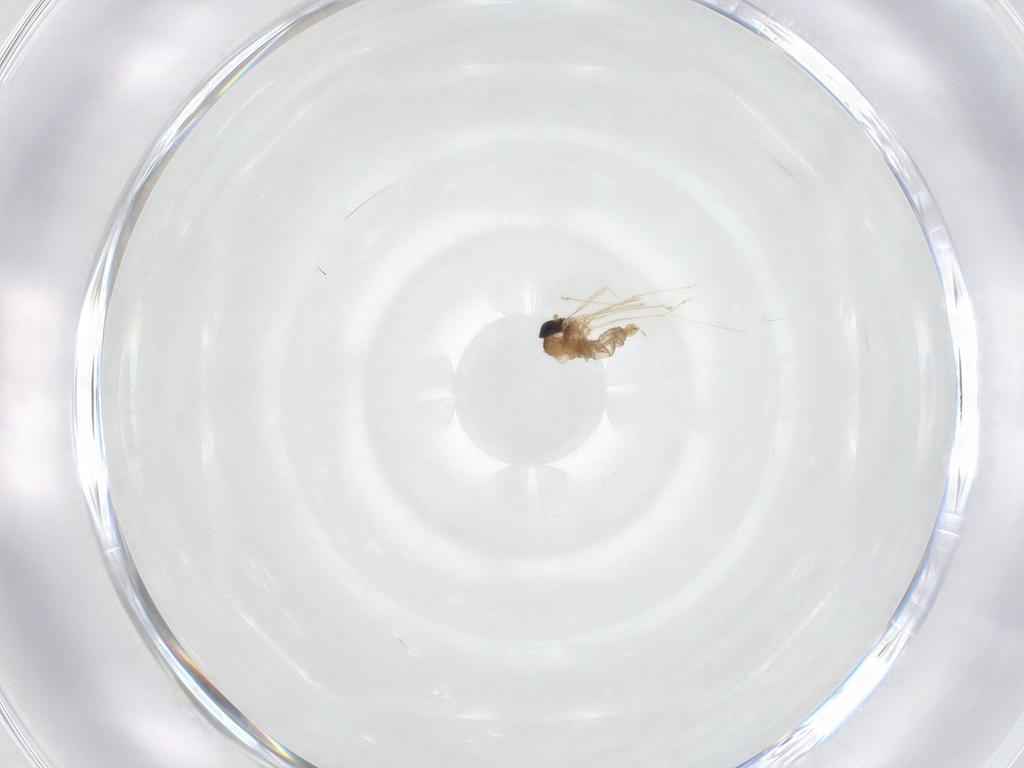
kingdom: Animalia
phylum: Arthropoda
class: Insecta
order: Diptera
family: Cecidomyiidae
